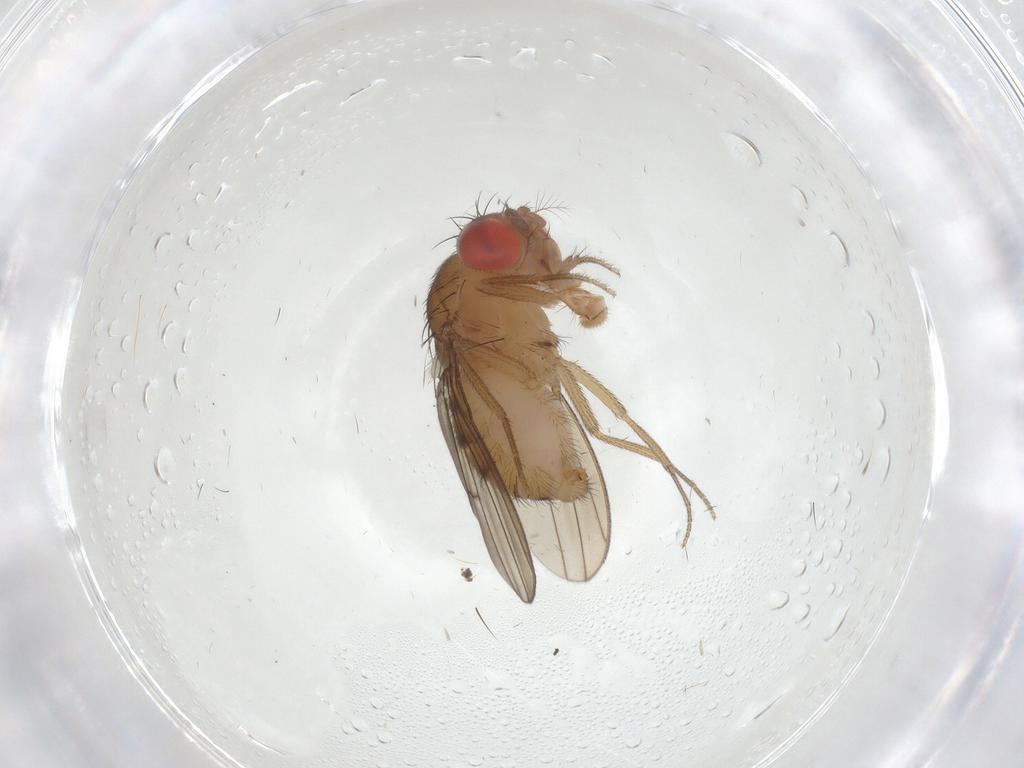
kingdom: Animalia
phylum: Arthropoda
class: Insecta
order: Diptera
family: Drosophilidae
